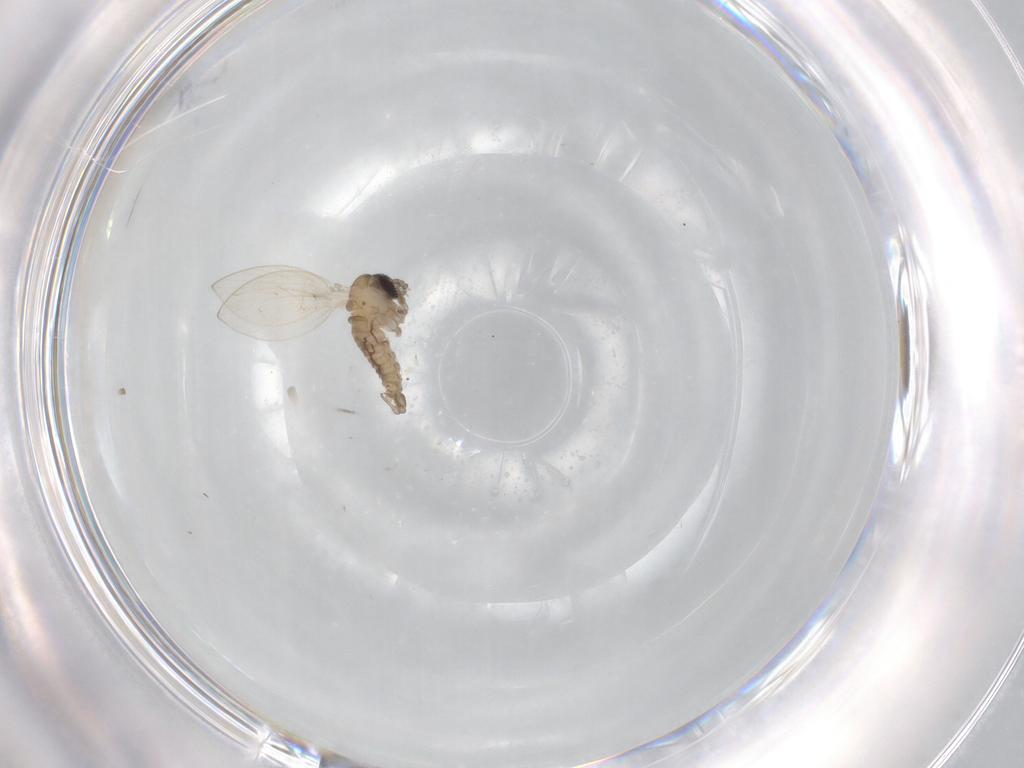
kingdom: Animalia
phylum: Arthropoda
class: Insecta
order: Diptera
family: Psychodidae
